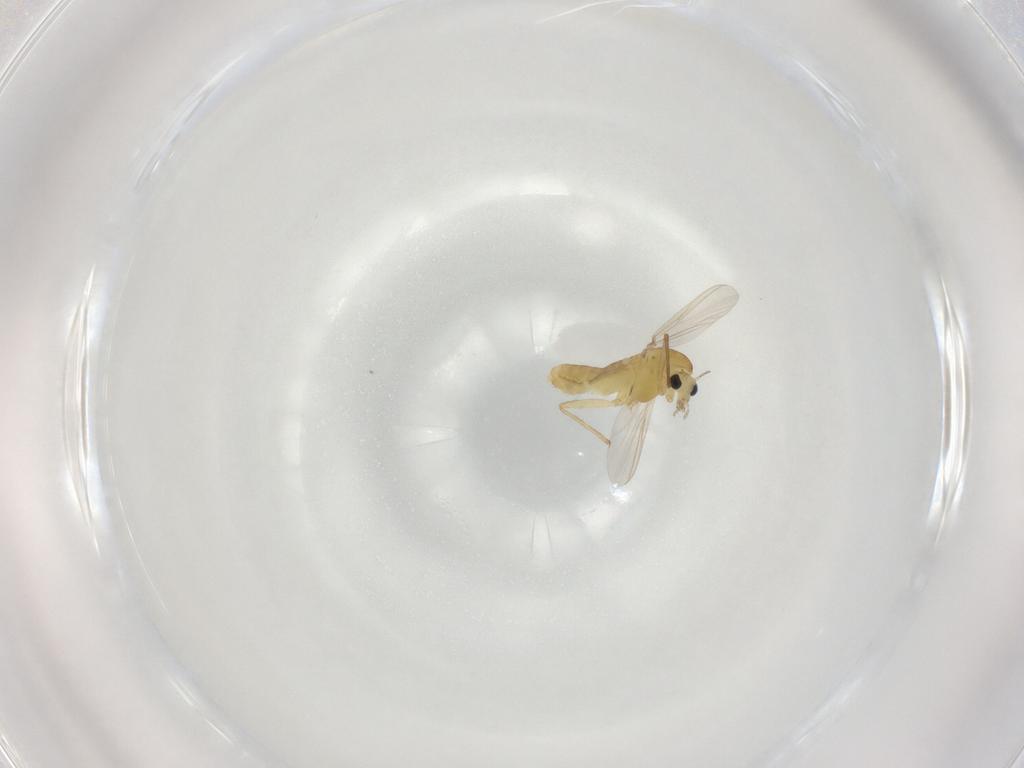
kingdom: Animalia
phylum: Arthropoda
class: Insecta
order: Diptera
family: Chironomidae
